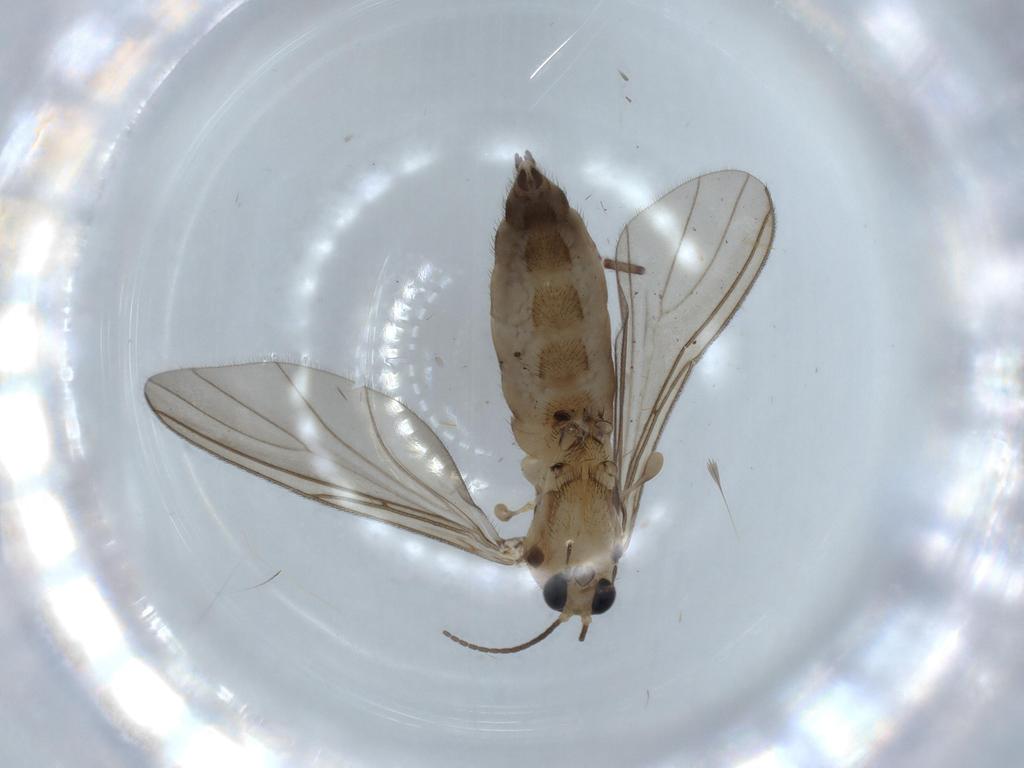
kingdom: Animalia
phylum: Arthropoda
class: Insecta
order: Diptera
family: Sciaridae
